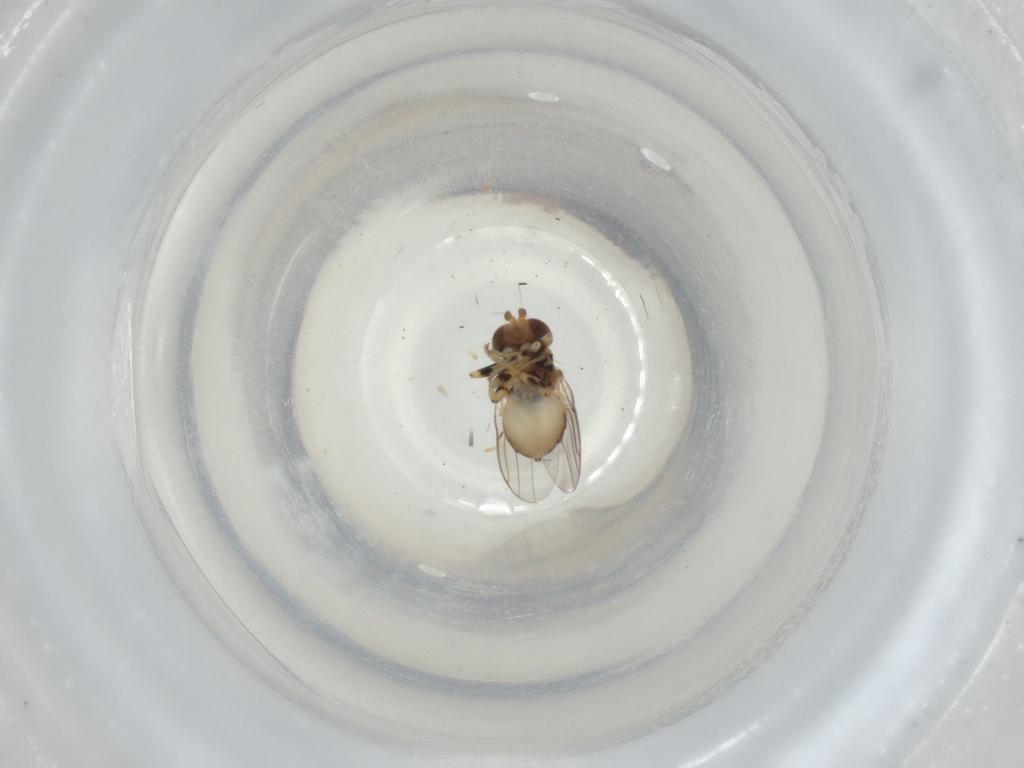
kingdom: Animalia
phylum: Arthropoda
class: Insecta
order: Diptera
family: Chloropidae
